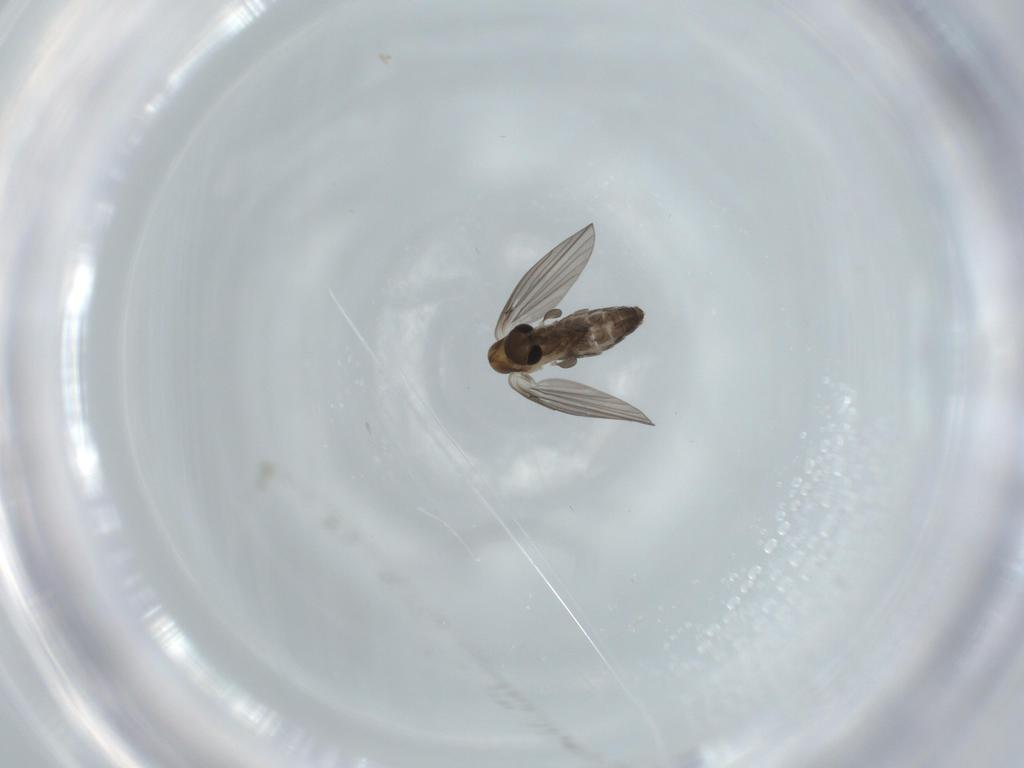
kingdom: Animalia
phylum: Arthropoda
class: Insecta
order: Diptera
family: Psychodidae
